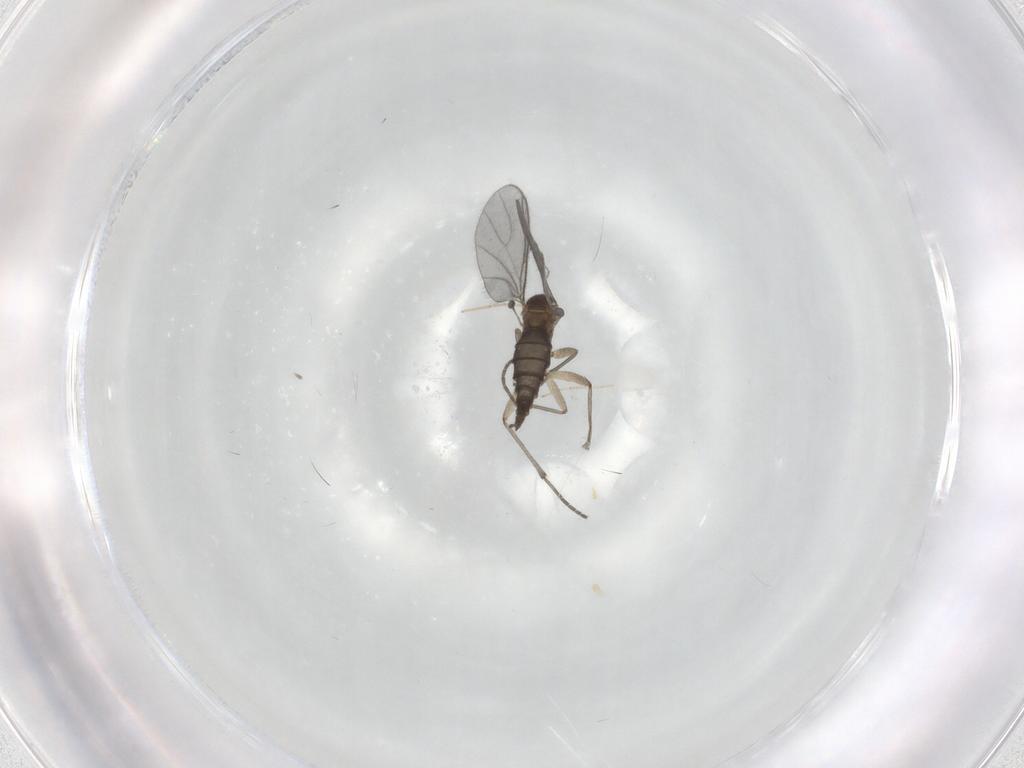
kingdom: Animalia
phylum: Arthropoda
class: Insecta
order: Diptera
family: Sciaridae
